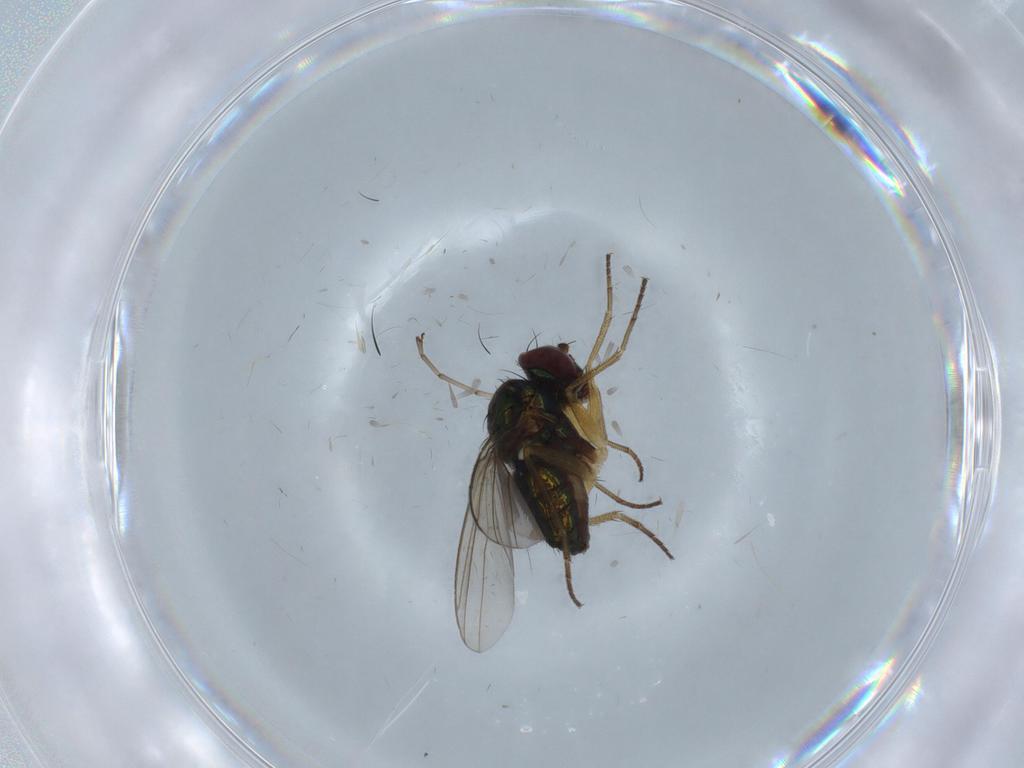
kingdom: Animalia
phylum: Arthropoda
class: Insecta
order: Diptera
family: Dolichopodidae
